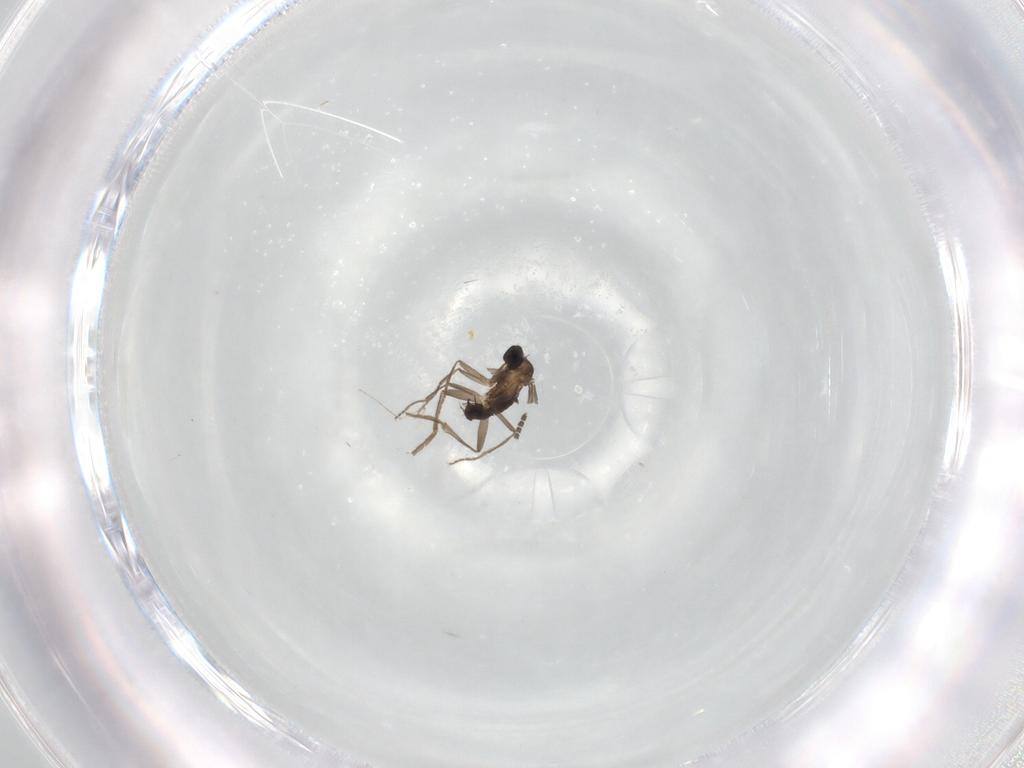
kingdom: Animalia
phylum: Arthropoda
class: Insecta
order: Diptera
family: Phoridae
